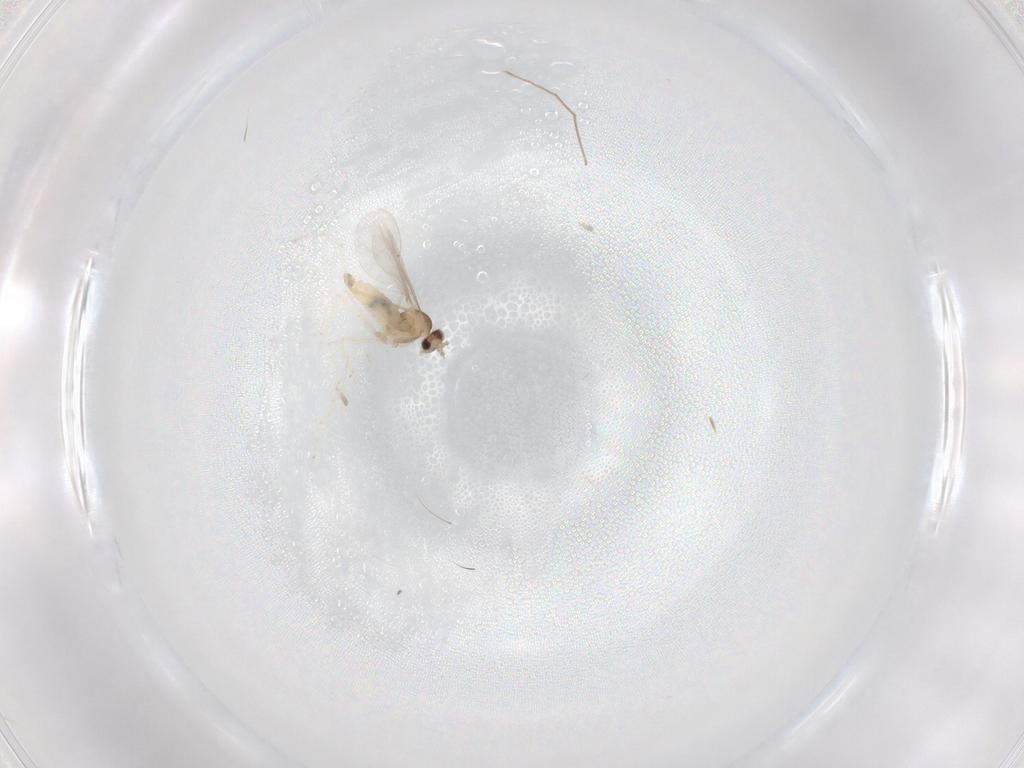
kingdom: Animalia
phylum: Arthropoda
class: Insecta
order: Diptera
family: Cecidomyiidae
